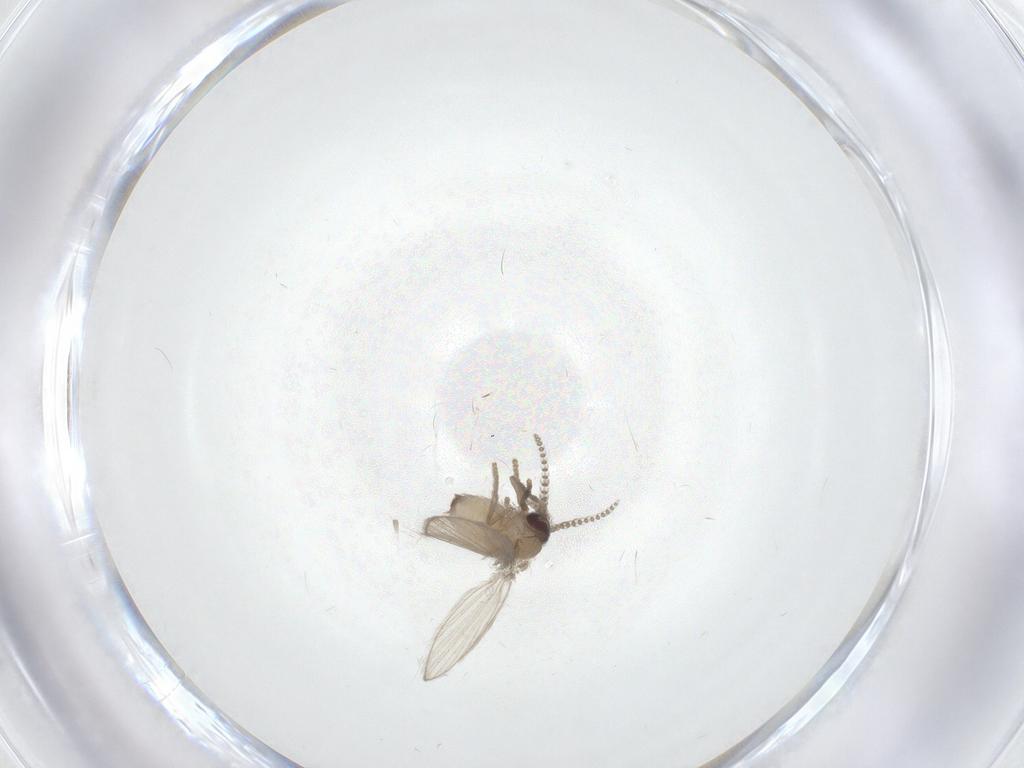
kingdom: Animalia
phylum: Arthropoda
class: Insecta
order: Diptera
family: Psychodidae
